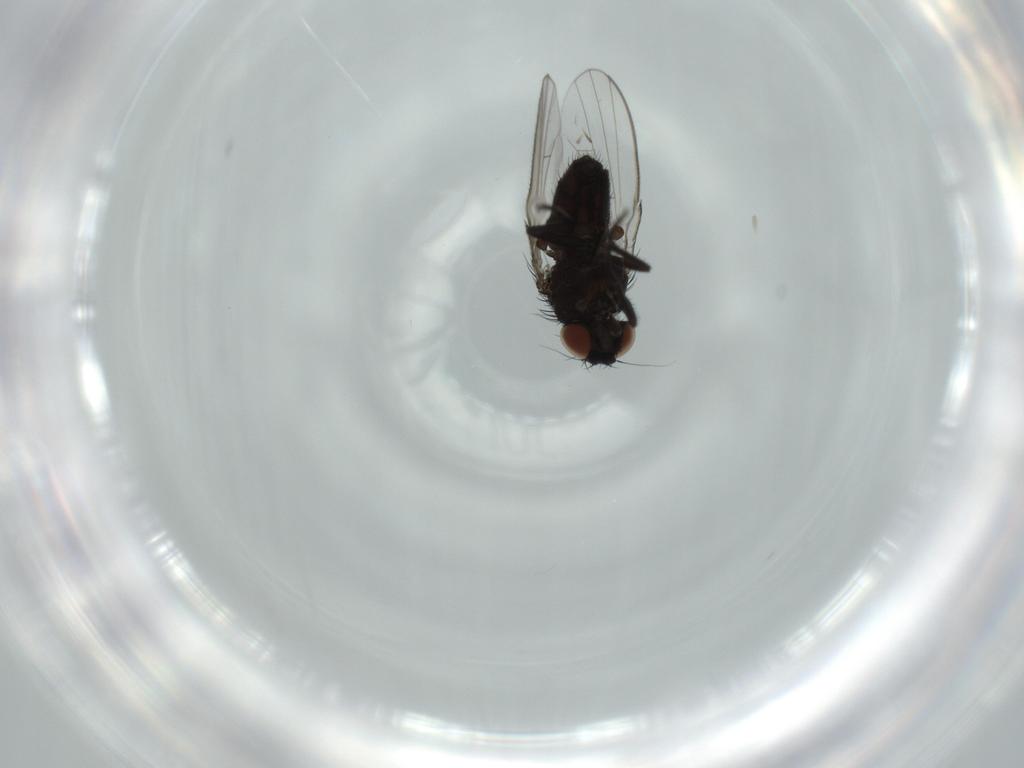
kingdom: Animalia
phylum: Arthropoda
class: Insecta
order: Diptera
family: Milichiidae
